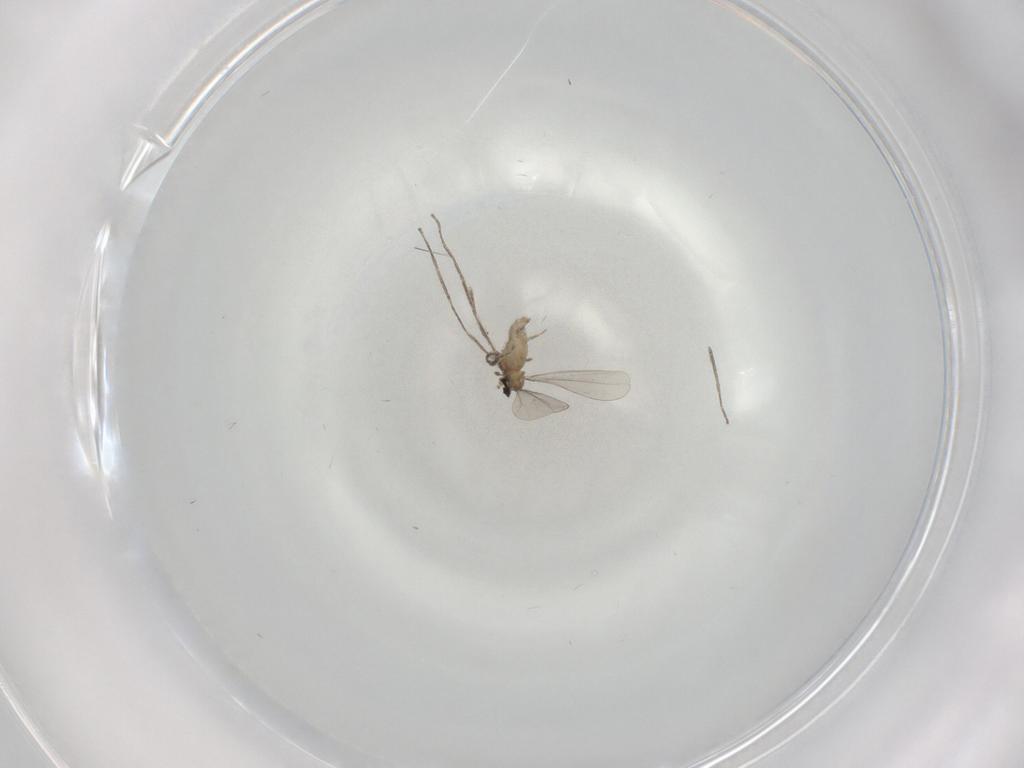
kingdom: Animalia
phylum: Arthropoda
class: Insecta
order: Diptera
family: Cecidomyiidae
